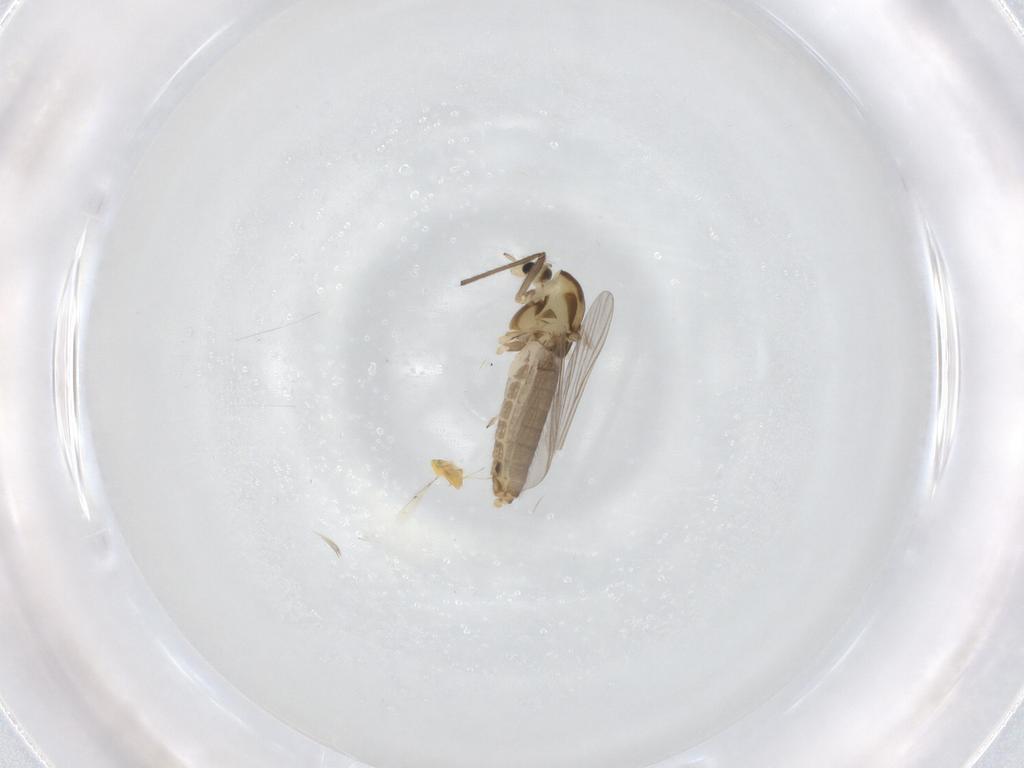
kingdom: Animalia
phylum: Arthropoda
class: Insecta
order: Diptera
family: Chironomidae
